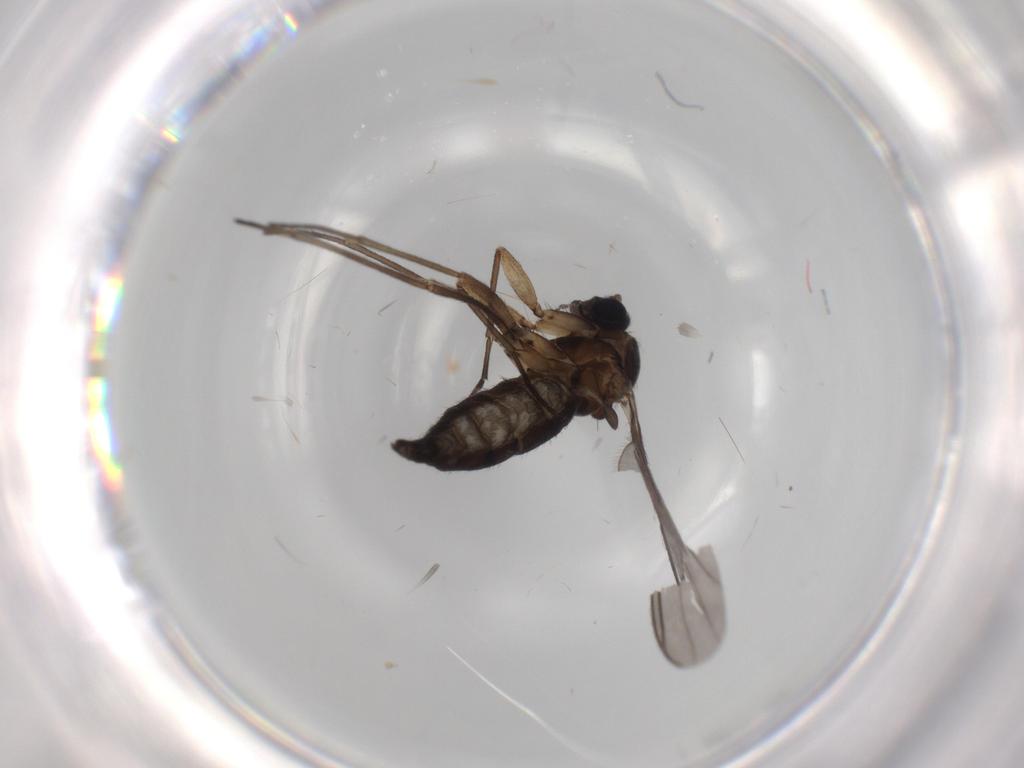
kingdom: Animalia
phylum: Arthropoda
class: Insecta
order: Diptera
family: Sciaridae
